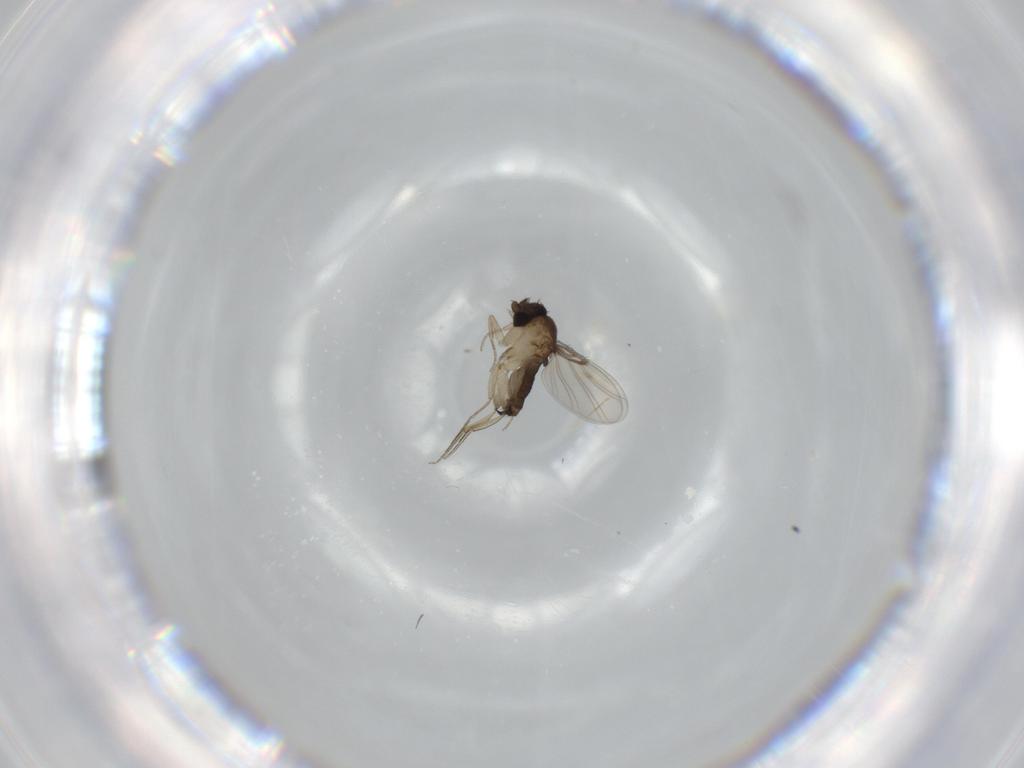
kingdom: Animalia
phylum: Arthropoda
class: Insecta
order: Diptera
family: Phoridae
